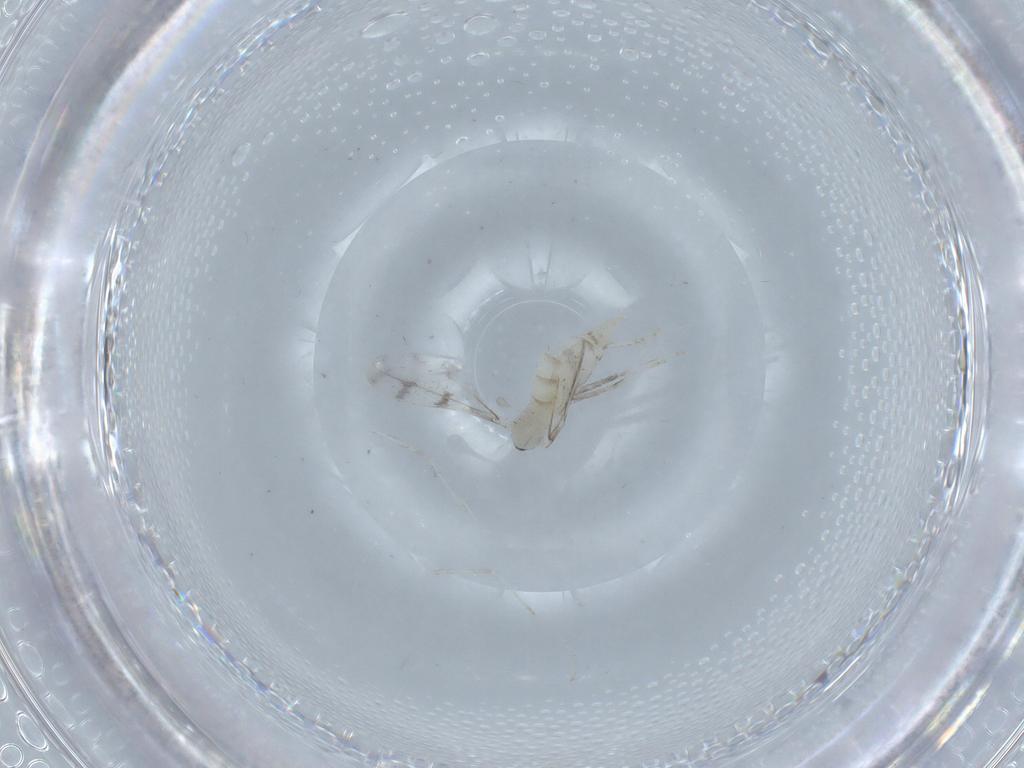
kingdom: Animalia
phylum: Arthropoda
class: Insecta
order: Diptera
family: Cecidomyiidae
